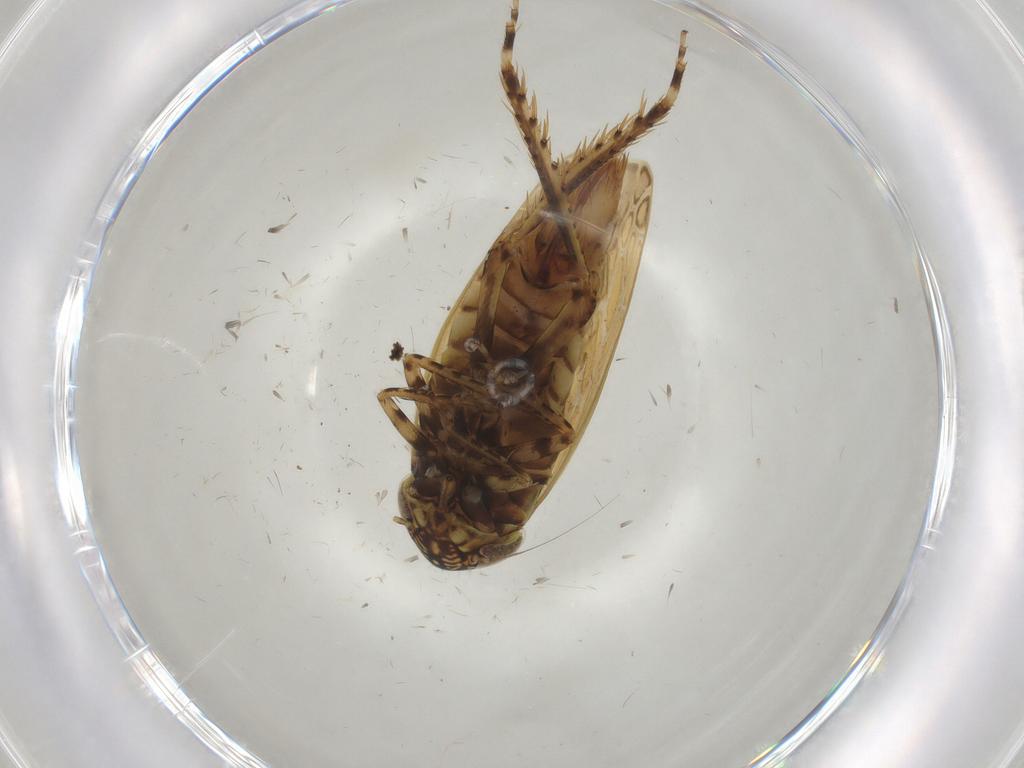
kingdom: Animalia
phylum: Arthropoda
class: Insecta
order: Hemiptera
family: Cicadellidae
